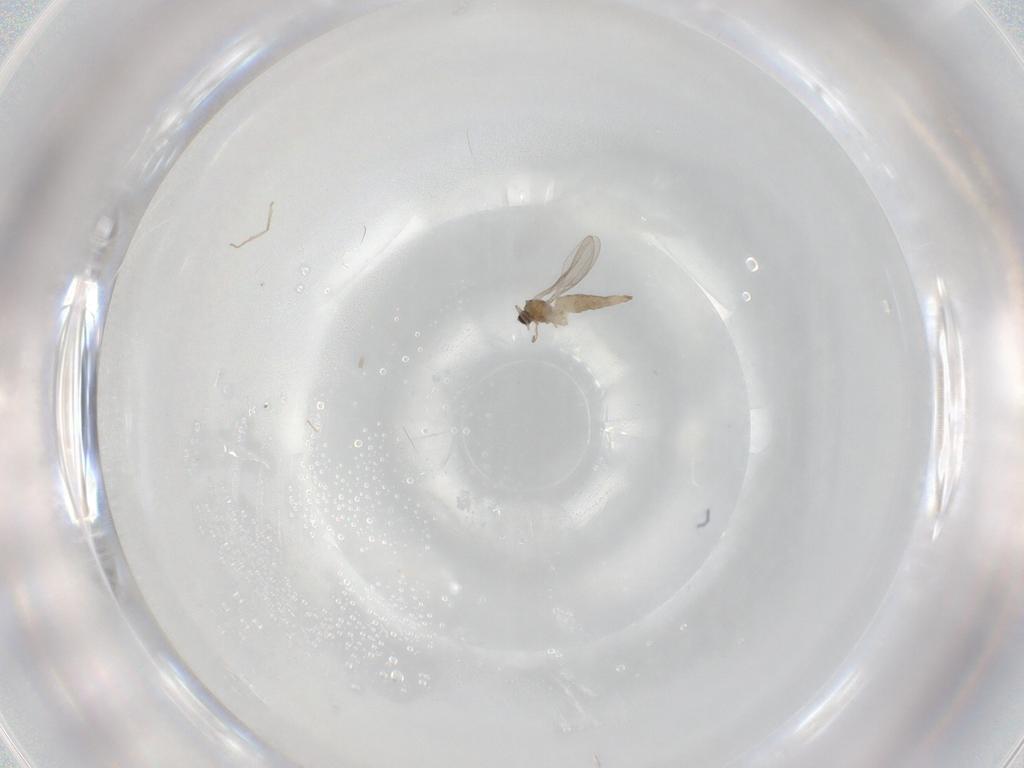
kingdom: Animalia
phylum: Arthropoda
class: Insecta
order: Diptera
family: Cecidomyiidae
